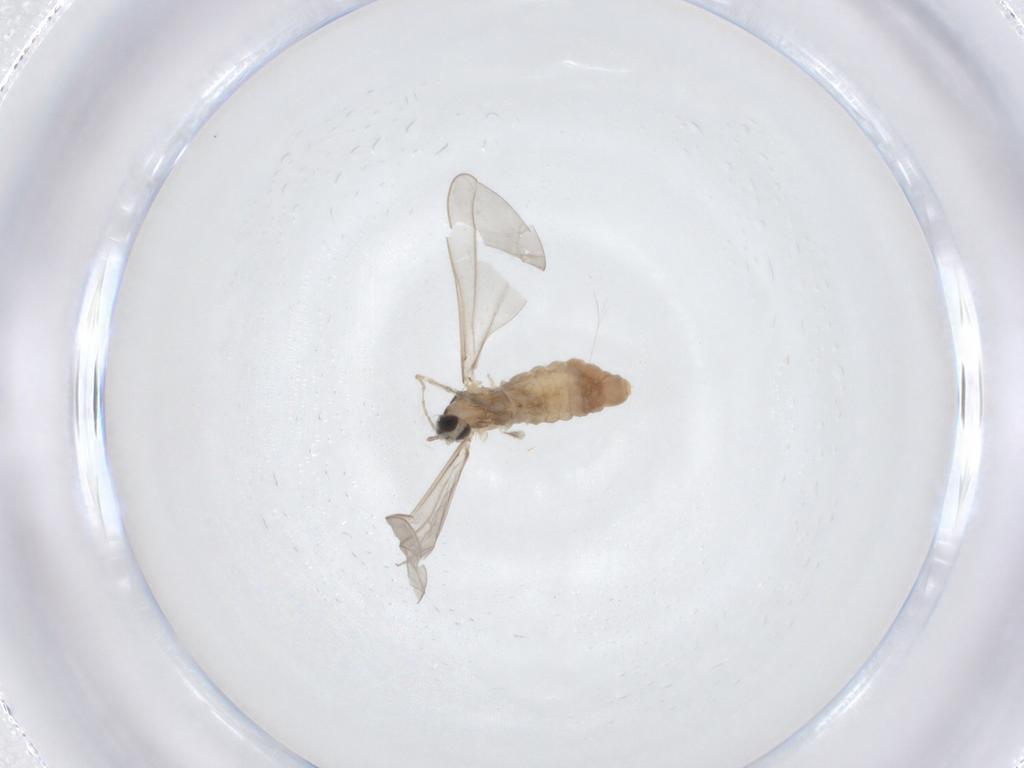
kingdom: Animalia
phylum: Arthropoda
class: Insecta
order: Diptera
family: Cecidomyiidae
